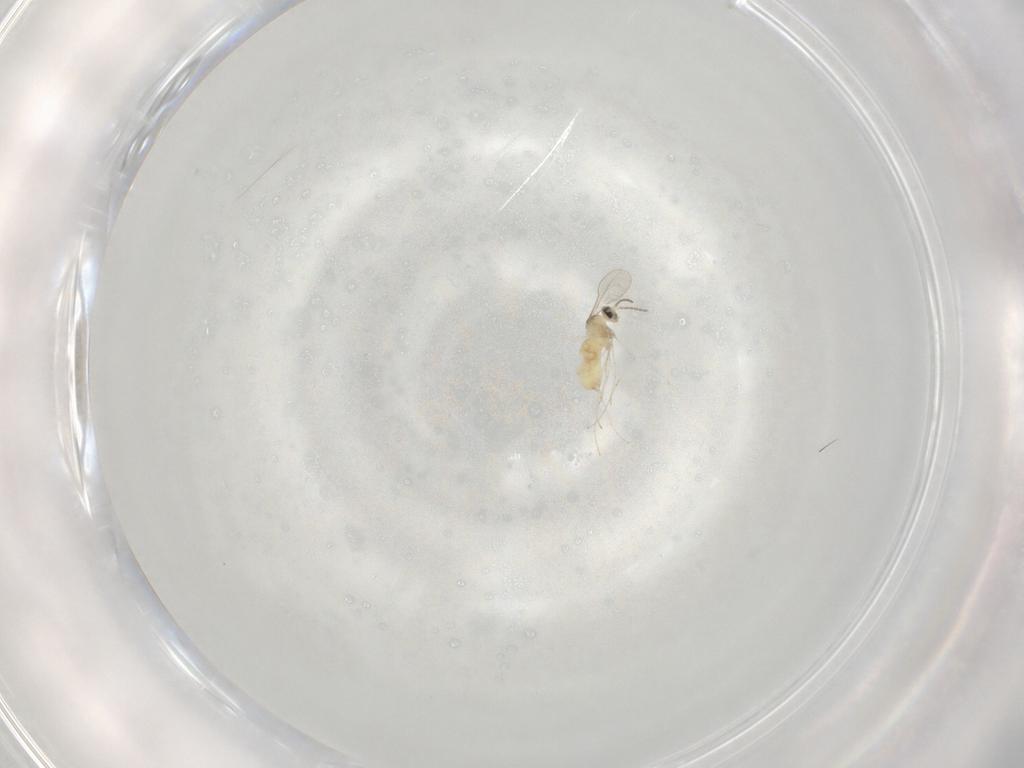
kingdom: Animalia
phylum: Arthropoda
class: Insecta
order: Diptera
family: Cecidomyiidae
